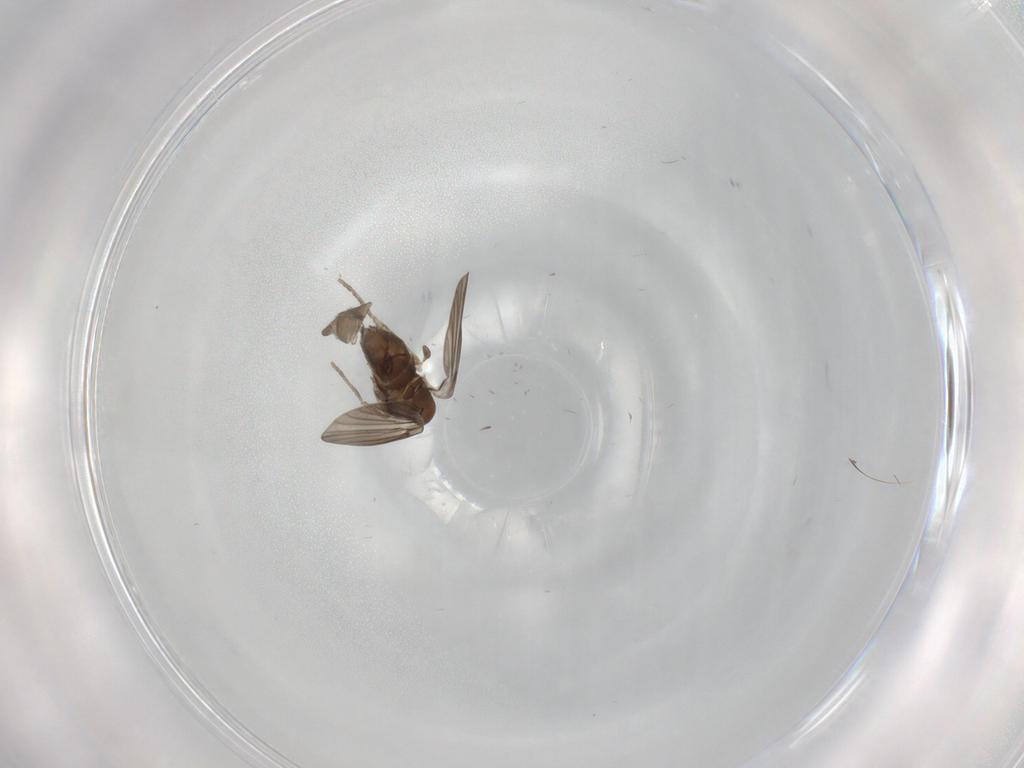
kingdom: Animalia
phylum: Arthropoda
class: Insecta
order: Diptera
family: Psychodidae
